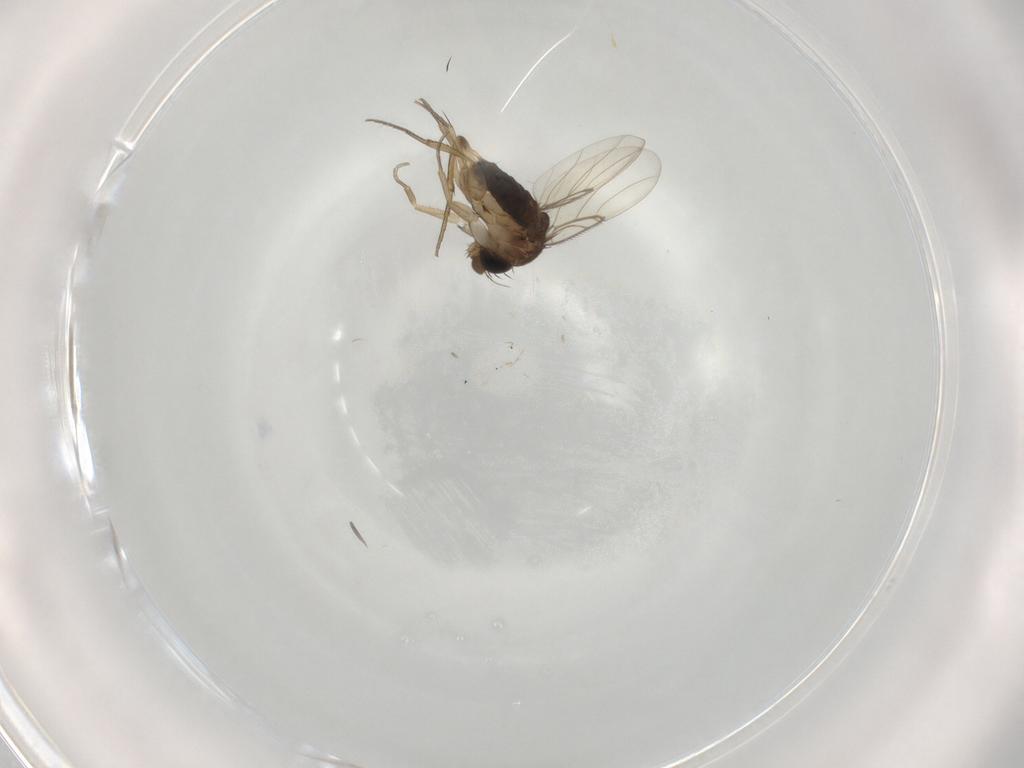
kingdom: Animalia
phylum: Arthropoda
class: Insecta
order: Diptera
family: Phoridae
